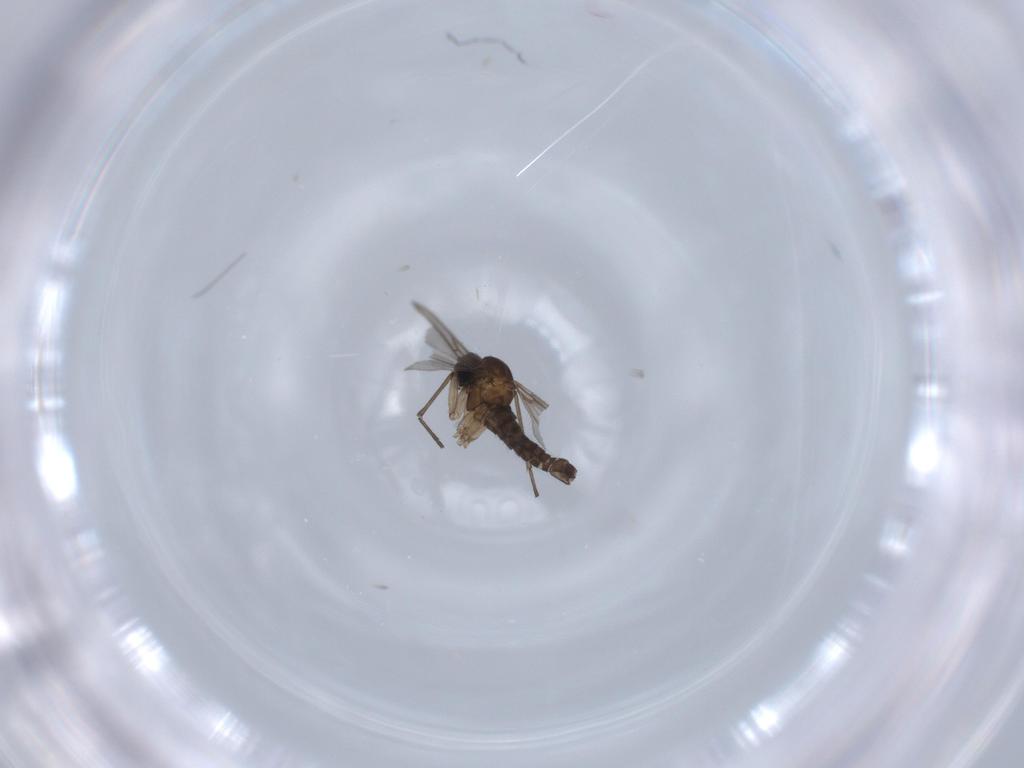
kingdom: Animalia
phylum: Arthropoda
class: Insecta
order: Diptera
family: Sciaridae
